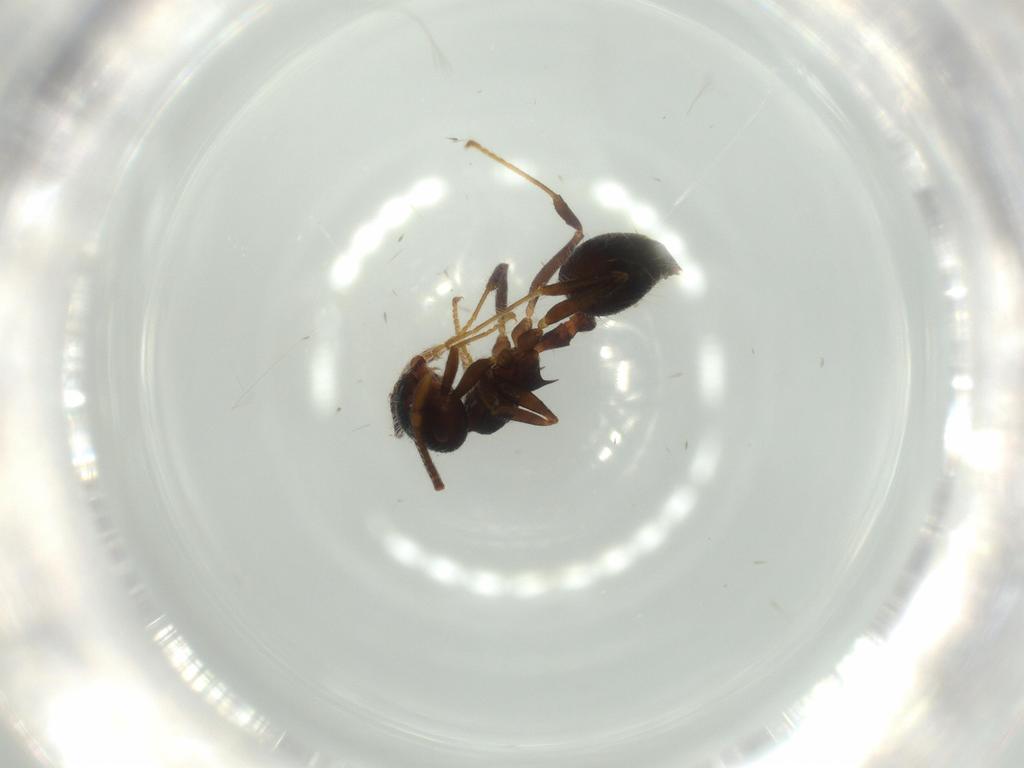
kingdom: Animalia
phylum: Arthropoda
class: Insecta
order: Hymenoptera
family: Formicidae
